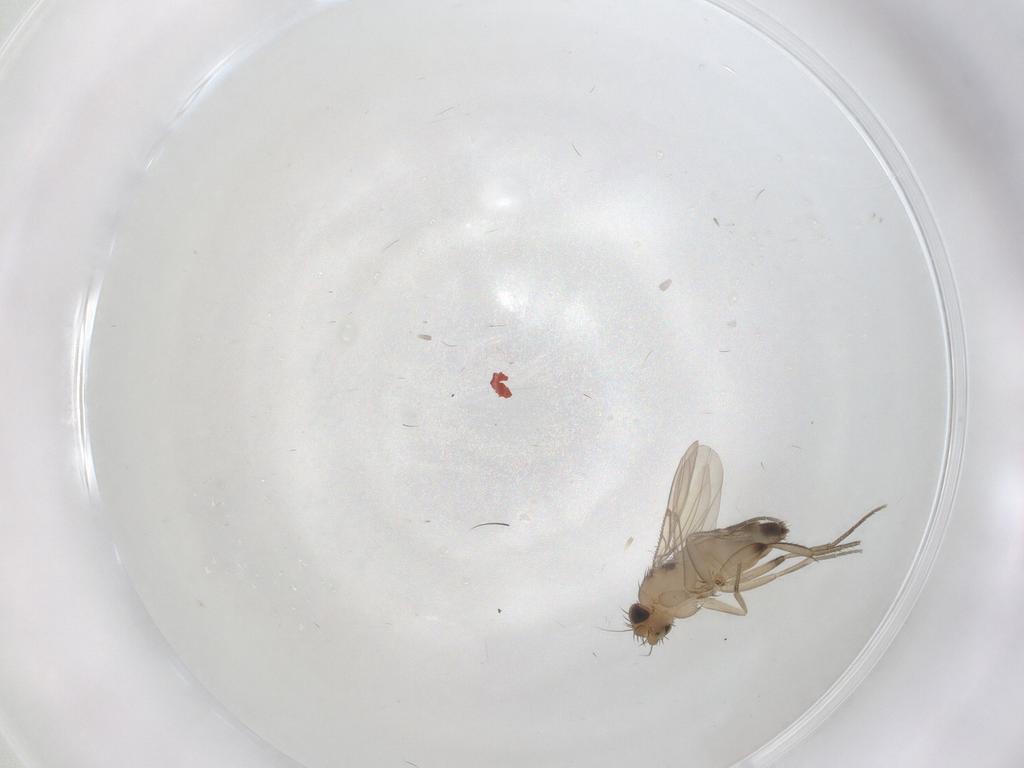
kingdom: Animalia
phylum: Arthropoda
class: Insecta
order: Diptera
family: Phoridae
